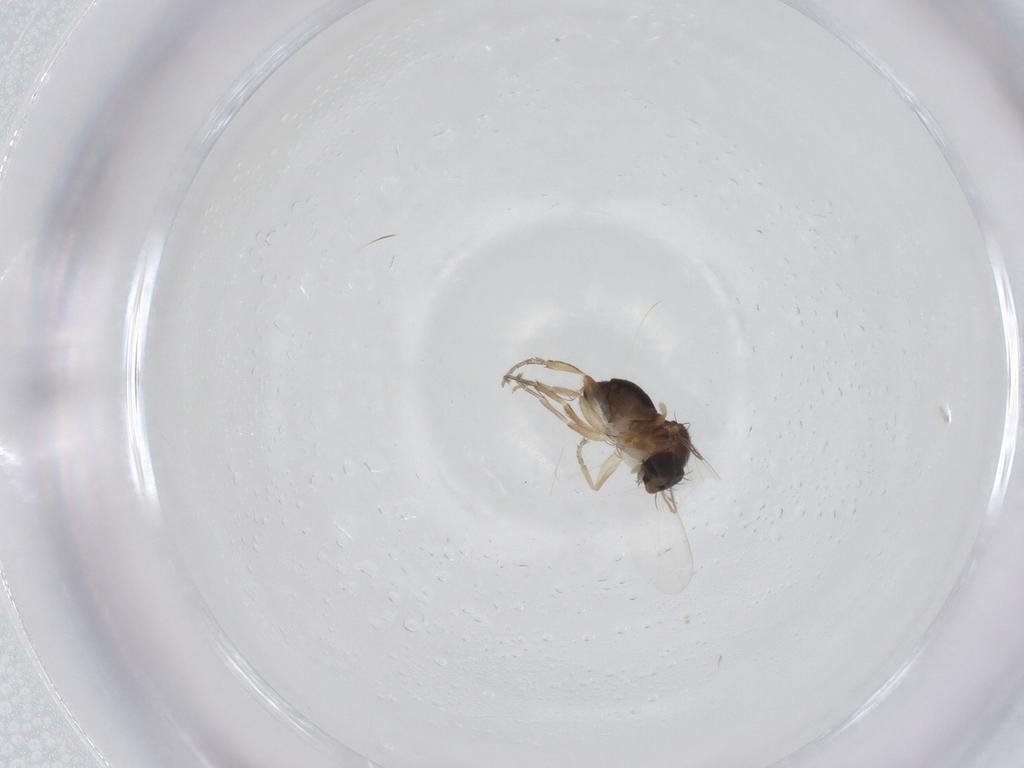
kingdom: Animalia
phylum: Arthropoda
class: Insecta
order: Diptera
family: Phoridae
